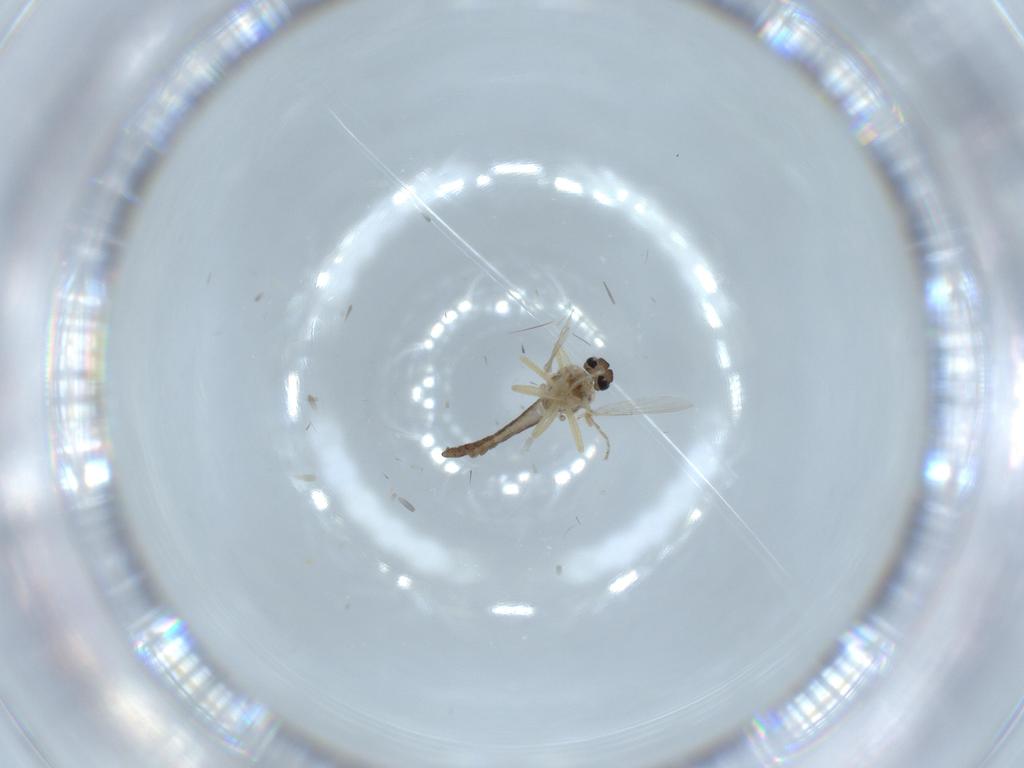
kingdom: Animalia
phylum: Arthropoda
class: Insecta
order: Diptera
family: Ceratopogonidae
